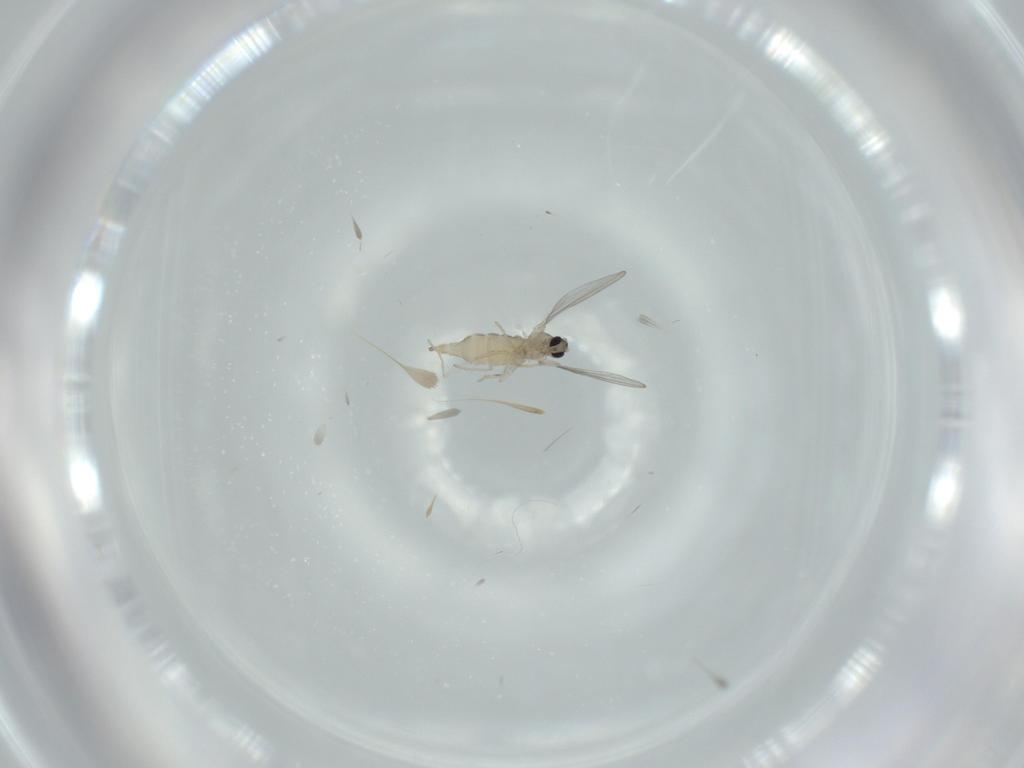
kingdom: Animalia
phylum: Arthropoda
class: Insecta
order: Diptera
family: Cecidomyiidae
